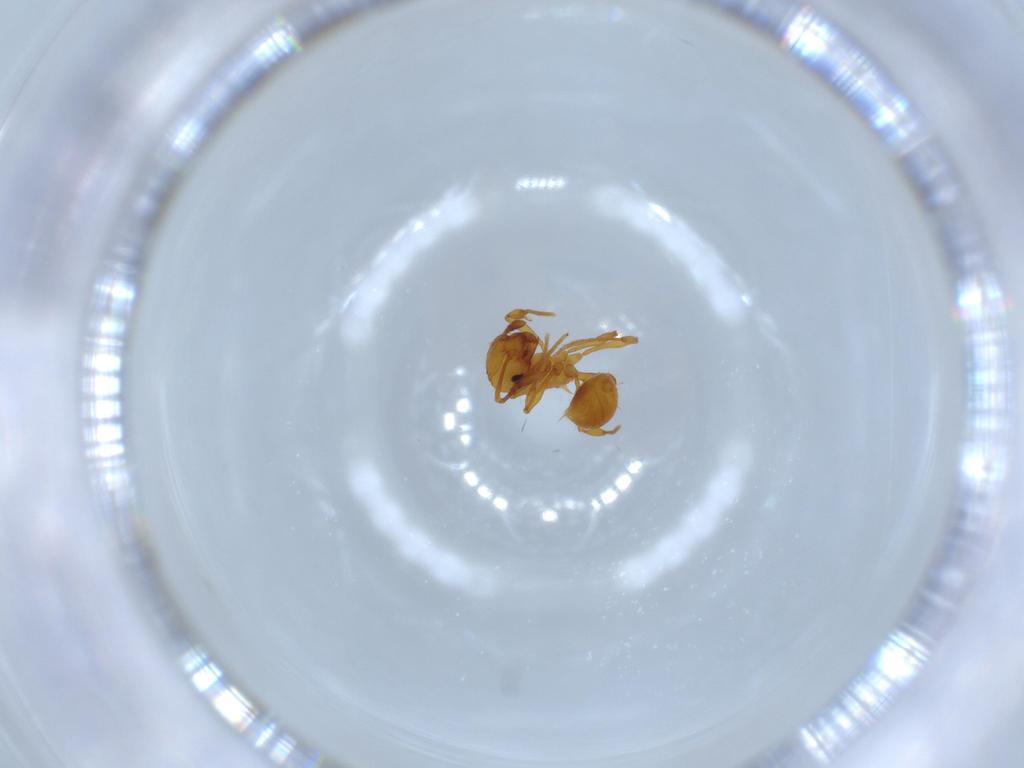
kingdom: Animalia
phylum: Arthropoda
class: Insecta
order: Hymenoptera
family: Formicidae
